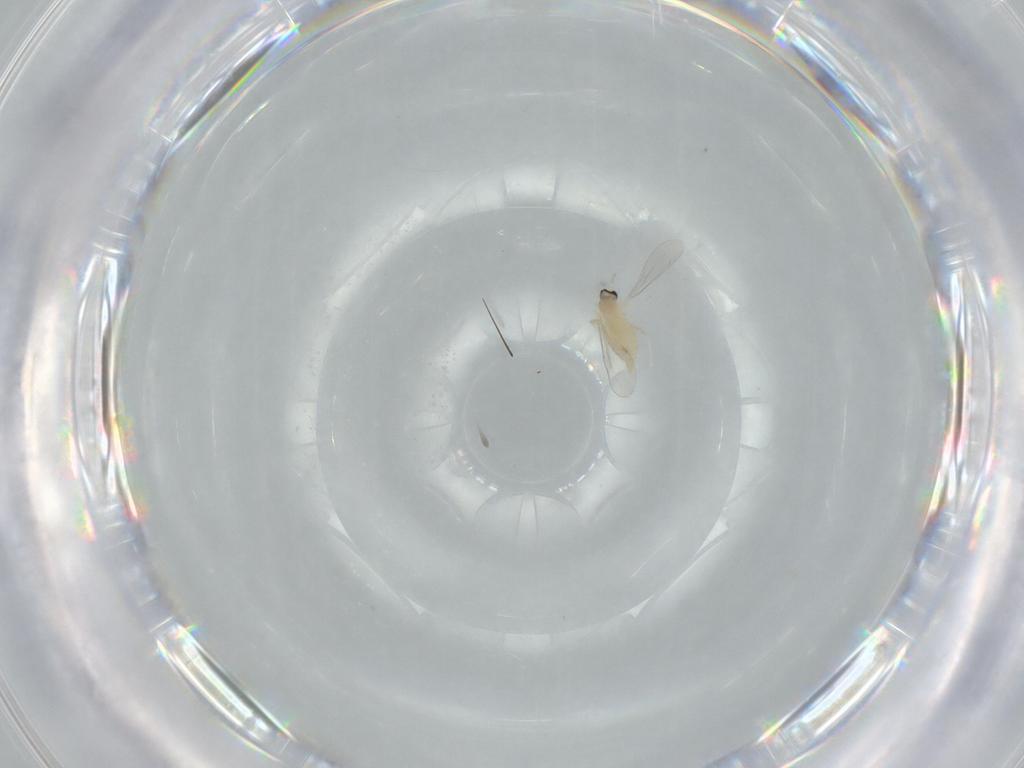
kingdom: Animalia
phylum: Arthropoda
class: Insecta
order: Diptera
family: Cecidomyiidae
